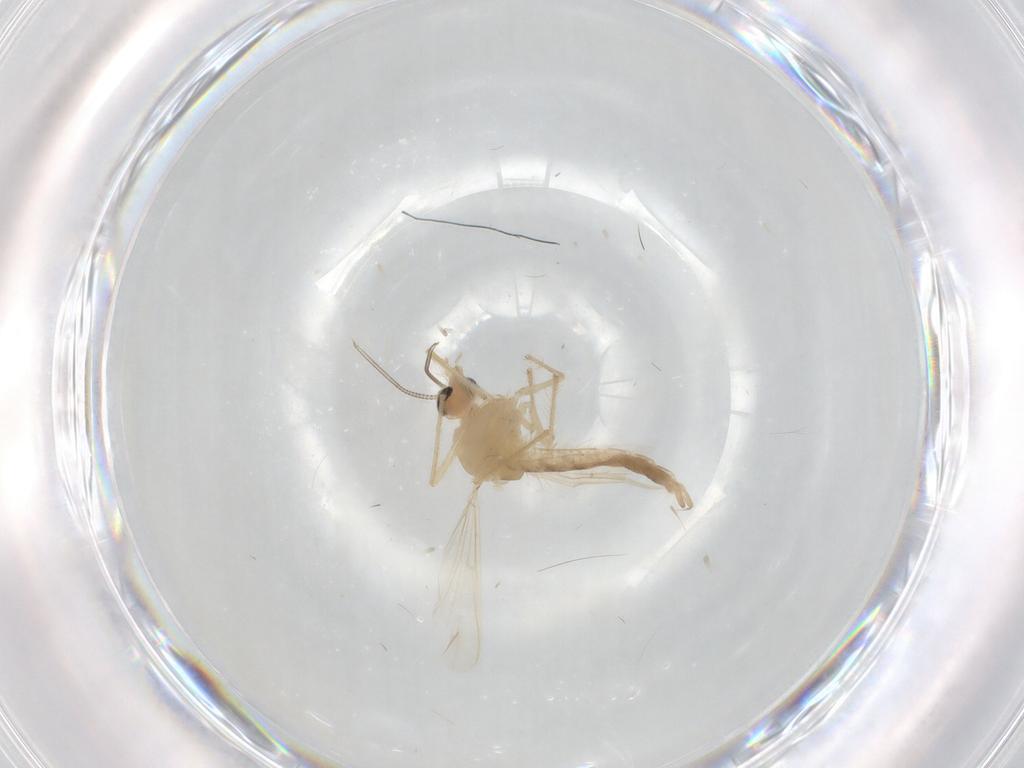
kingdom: Animalia
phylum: Arthropoda
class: Insecta
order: Diptera
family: Chironomidae
